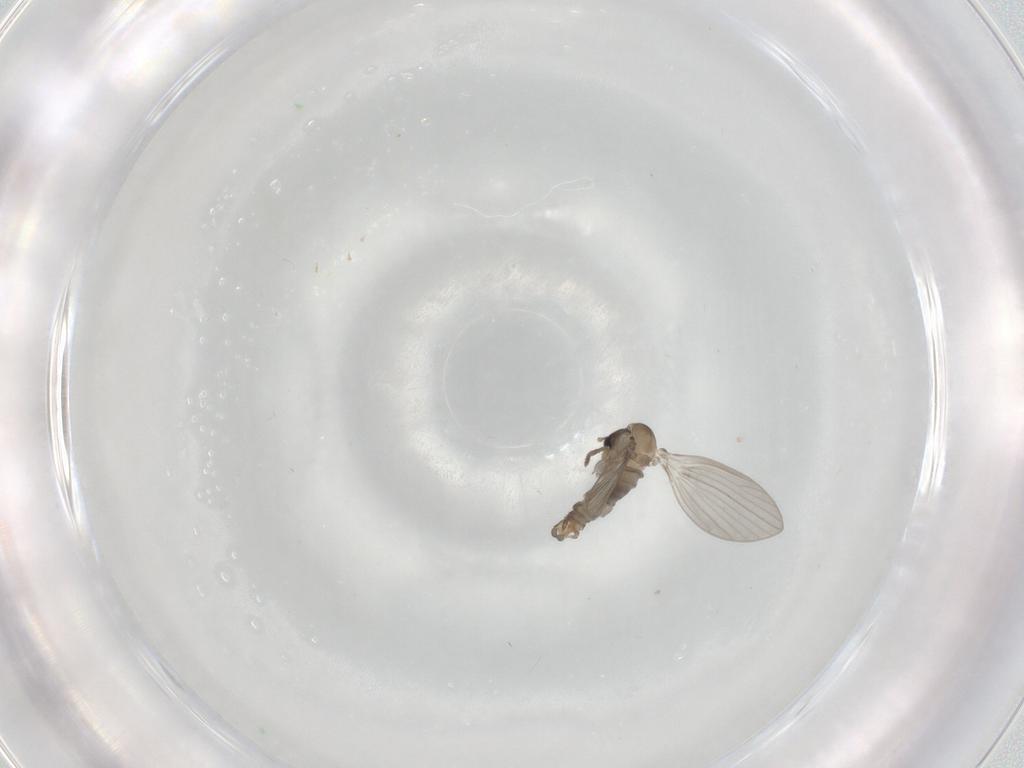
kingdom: Animalia
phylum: Arthropoda
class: Insecta
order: Diptera
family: Psychodidae
